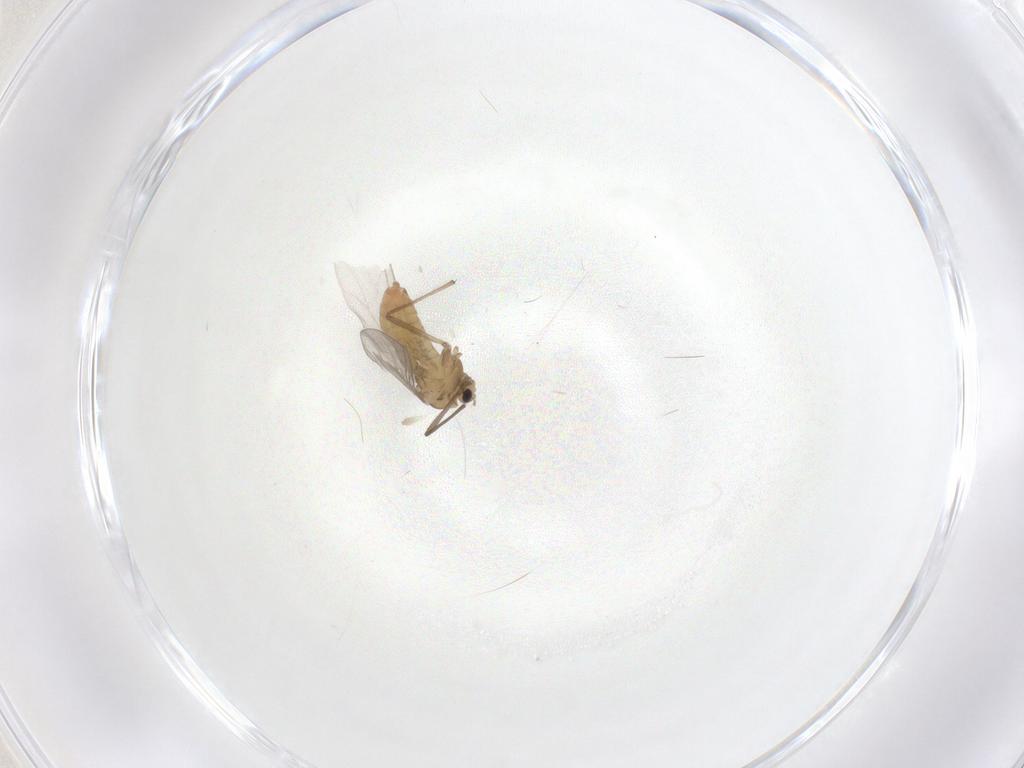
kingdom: Animalia
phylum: Arthropoda
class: Insecta
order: Diptera
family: Chironomidae
